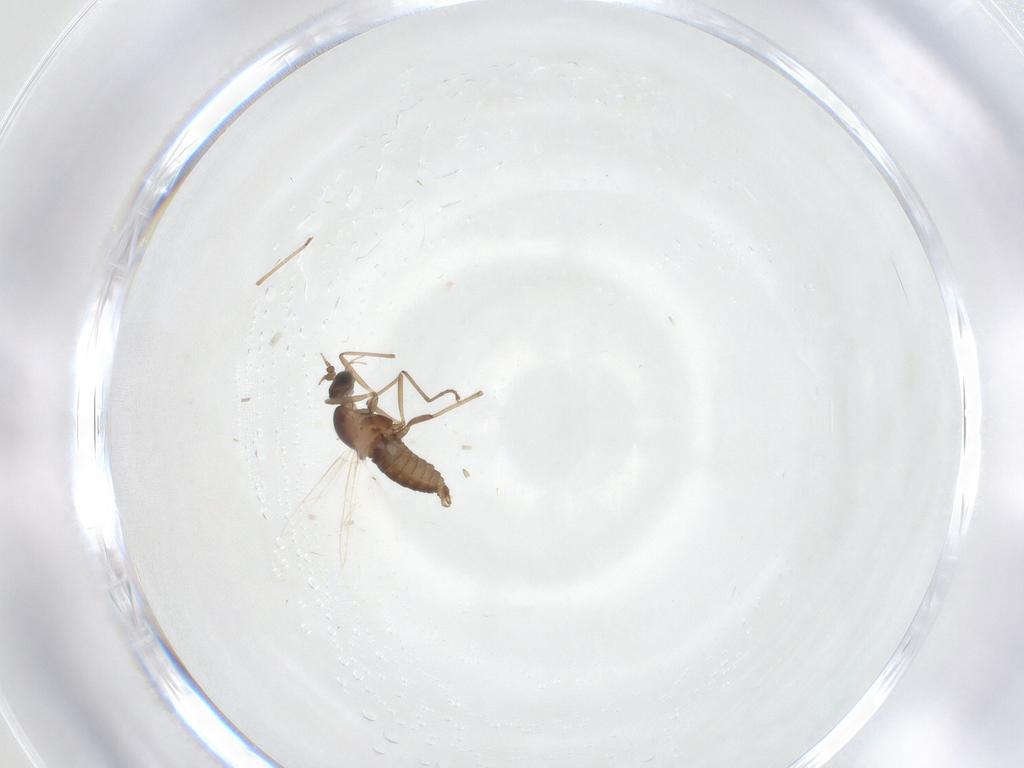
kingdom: Animalia
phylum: Arthropoda
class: Insecta
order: Diptera
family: Cecidomyiidae
